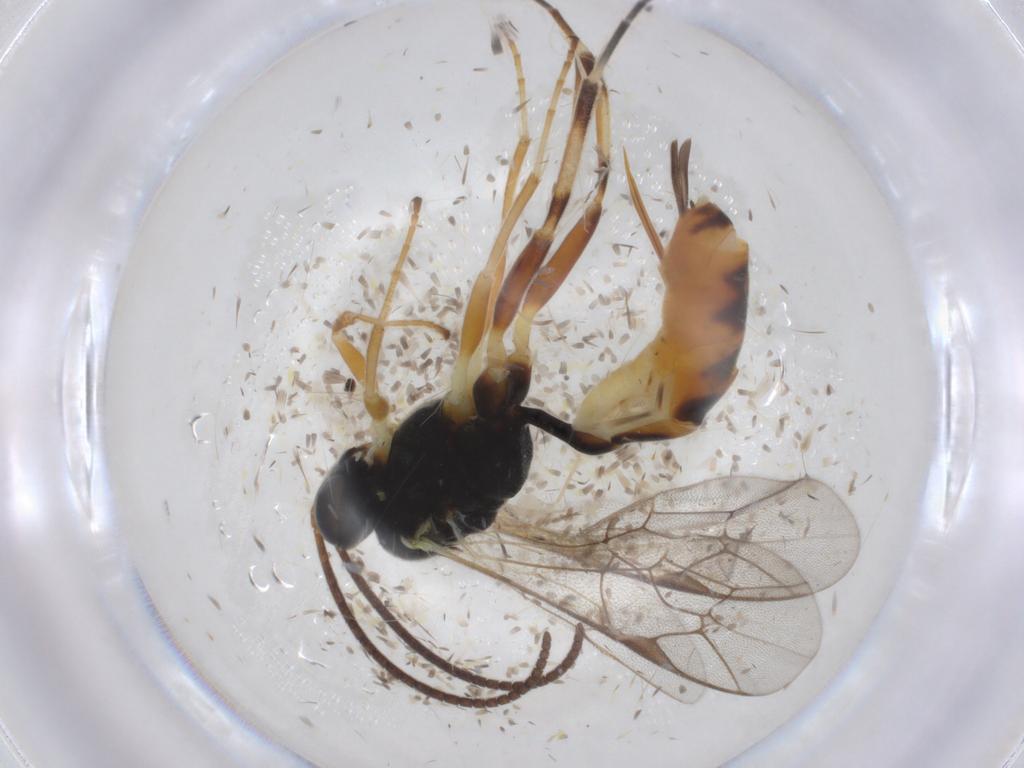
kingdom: Animalia
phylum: Arthropoda
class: Insecta
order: Hymenoptera
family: Ichneumonidae
